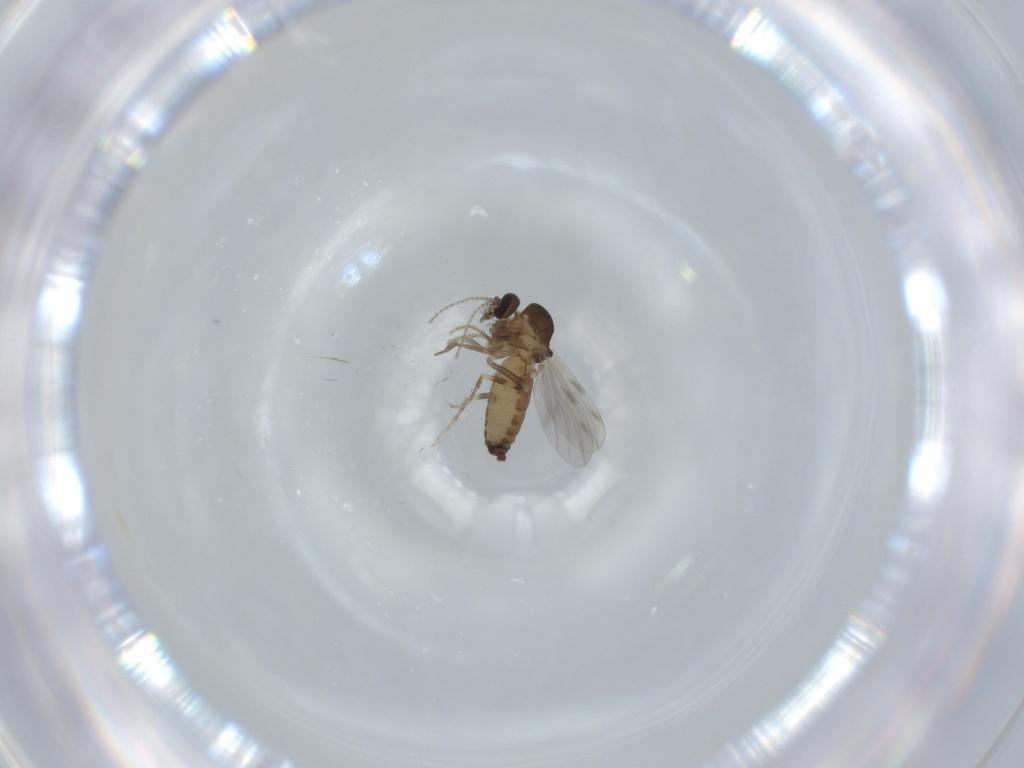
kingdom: Animalia
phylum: Arthropoda
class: Insecta
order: Diptera
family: Ceratopogonidae
